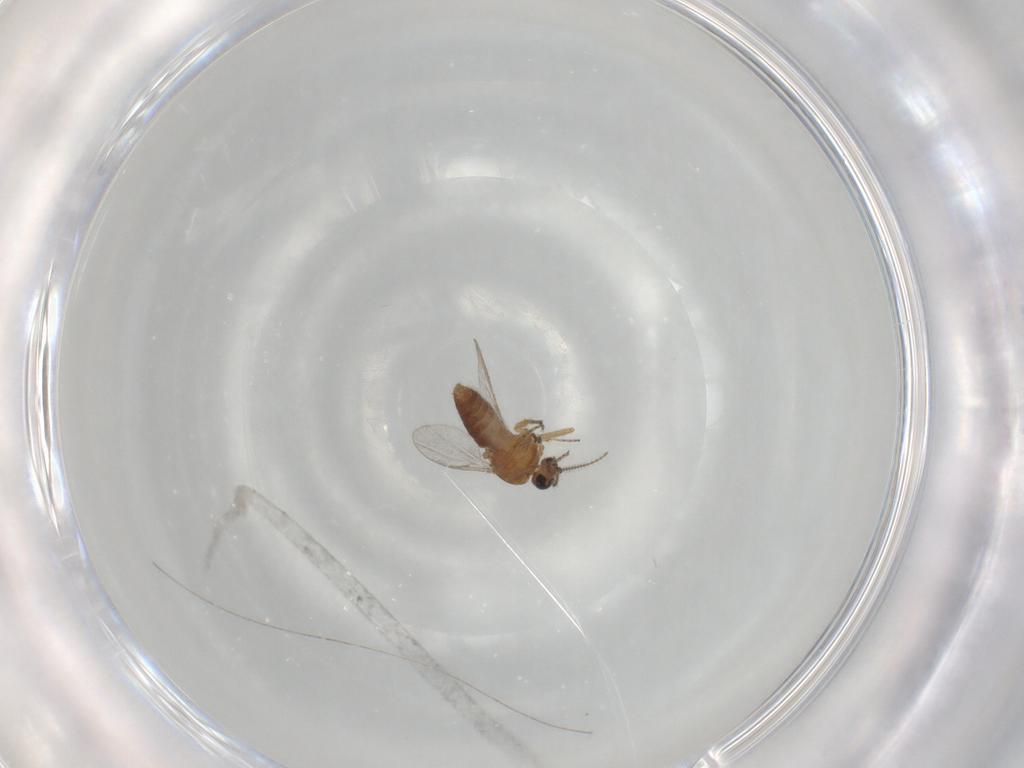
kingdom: Animalia
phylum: Arthropoda
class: Insecta
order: Diptera
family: Ceratopogonidae
